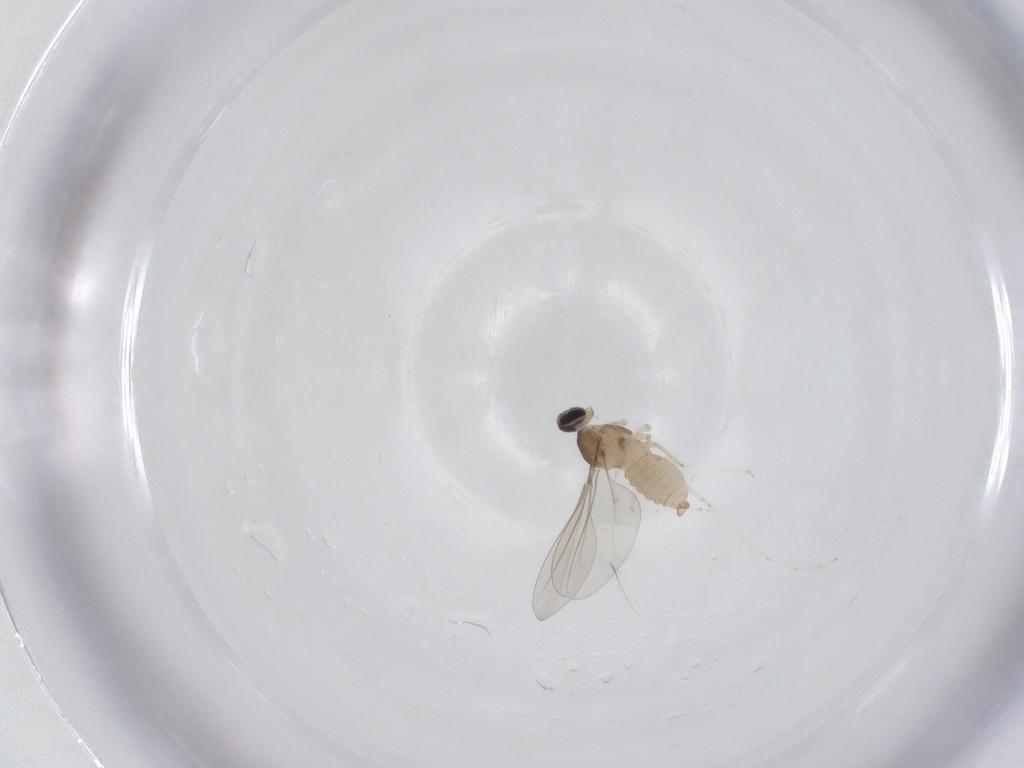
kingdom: Animalia
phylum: Arthropoda
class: Insecta
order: Diptera
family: Cecidomyiidae
